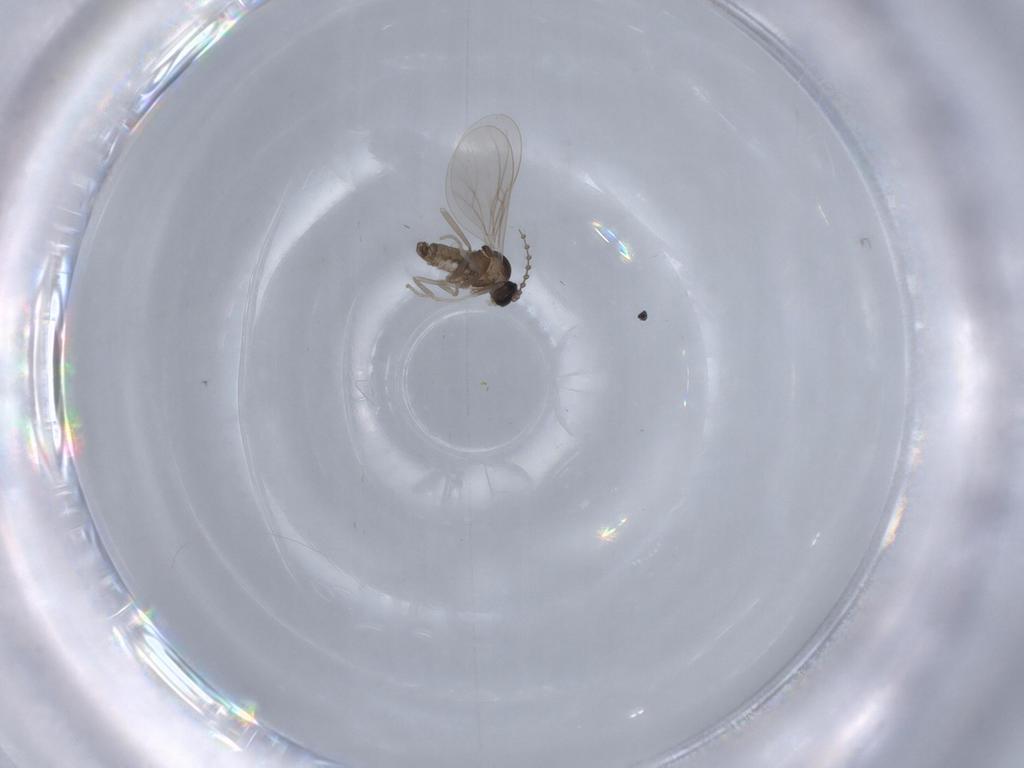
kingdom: Animalia
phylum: Arthropoda
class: Insecta
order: Diptera
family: Cecidomyiidae
